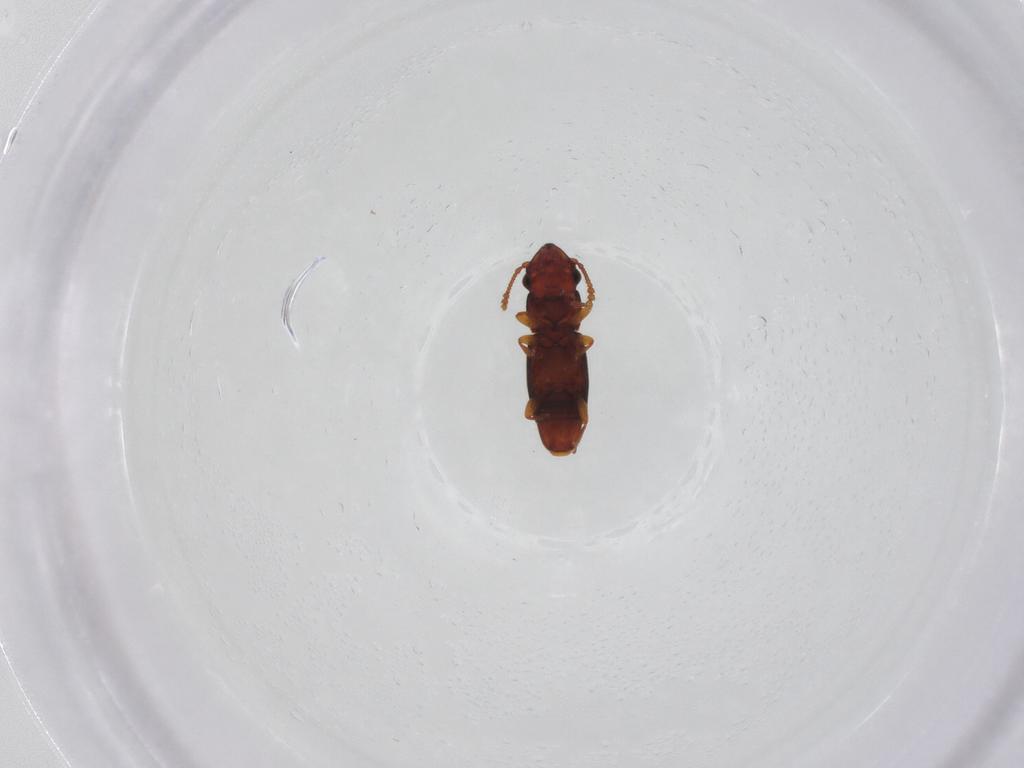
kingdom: Animalia
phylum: Arthropoda
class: Insecta
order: Coleoptera
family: Smicripidae
